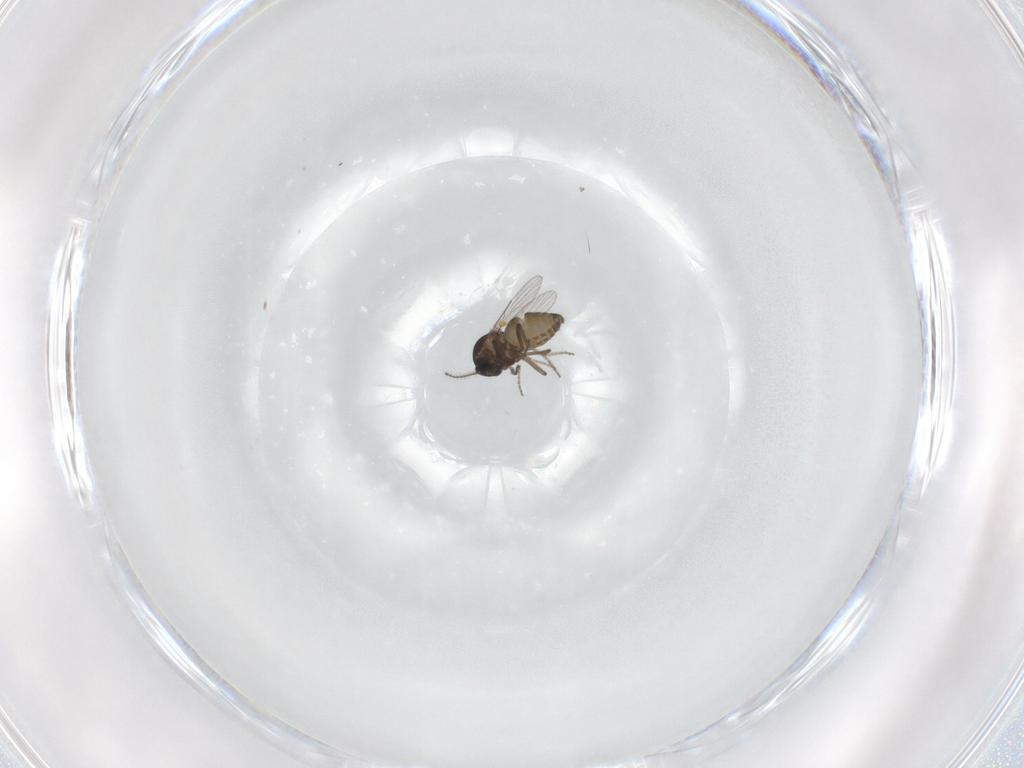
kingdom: Animalia
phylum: Arthropoda
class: Insecta
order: Diptera
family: Ceratopogonidae
